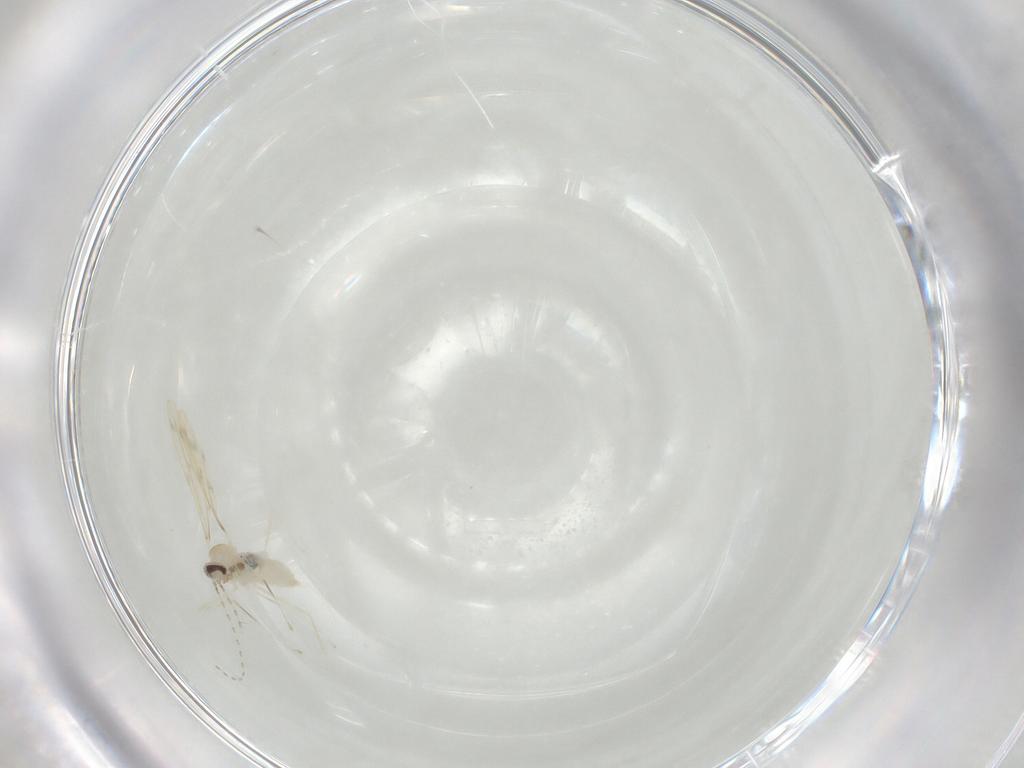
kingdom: Animalia
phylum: Arthropoda
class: Insecta
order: Diptera
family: Cecidomyiidae
